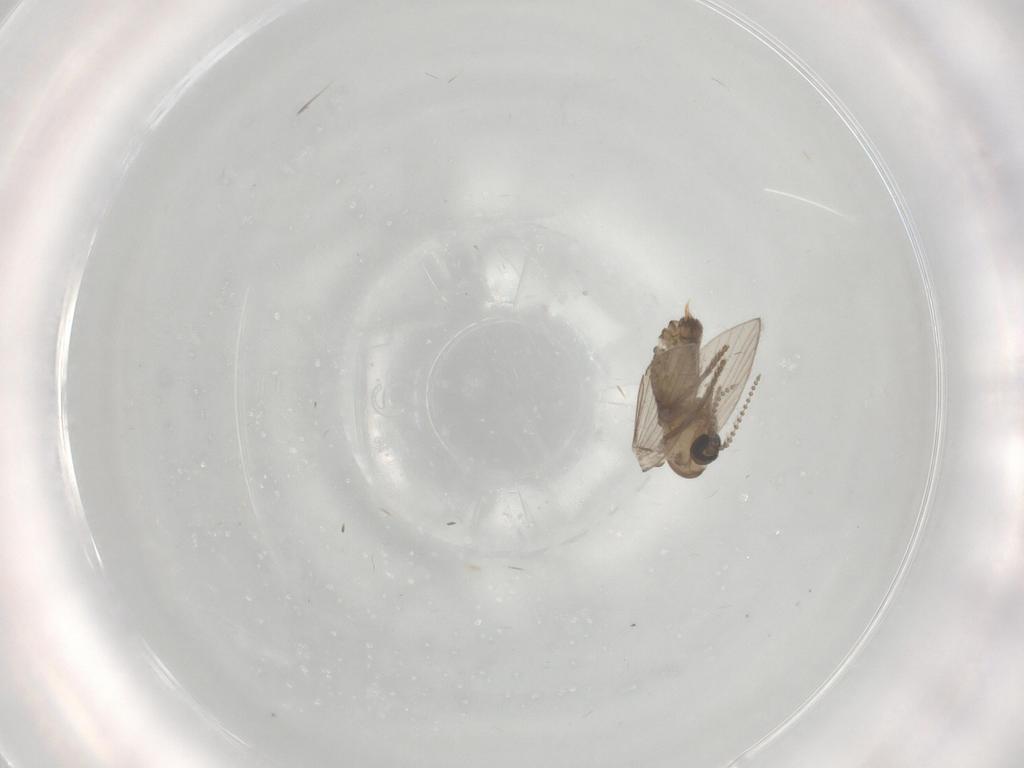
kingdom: Animalia
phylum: Arthropoda
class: Insecta
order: Diptera
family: Psychodidae
